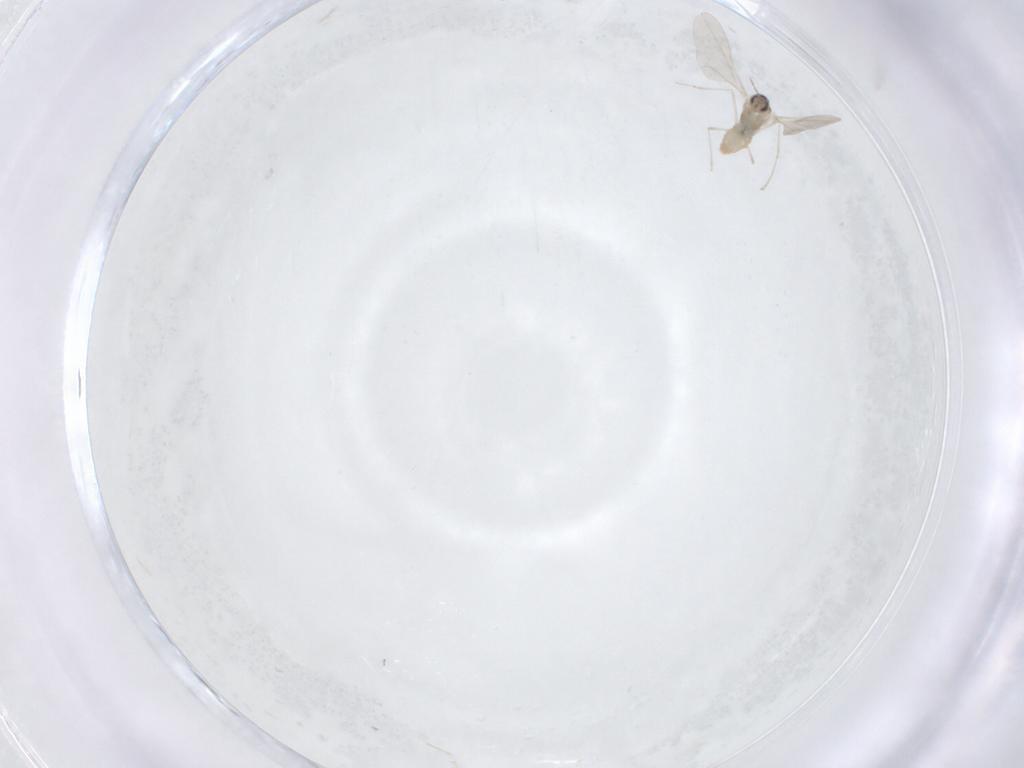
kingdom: Animalia
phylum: Arthropoda
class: Insecta
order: Diptera
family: Cecidomyiidae
